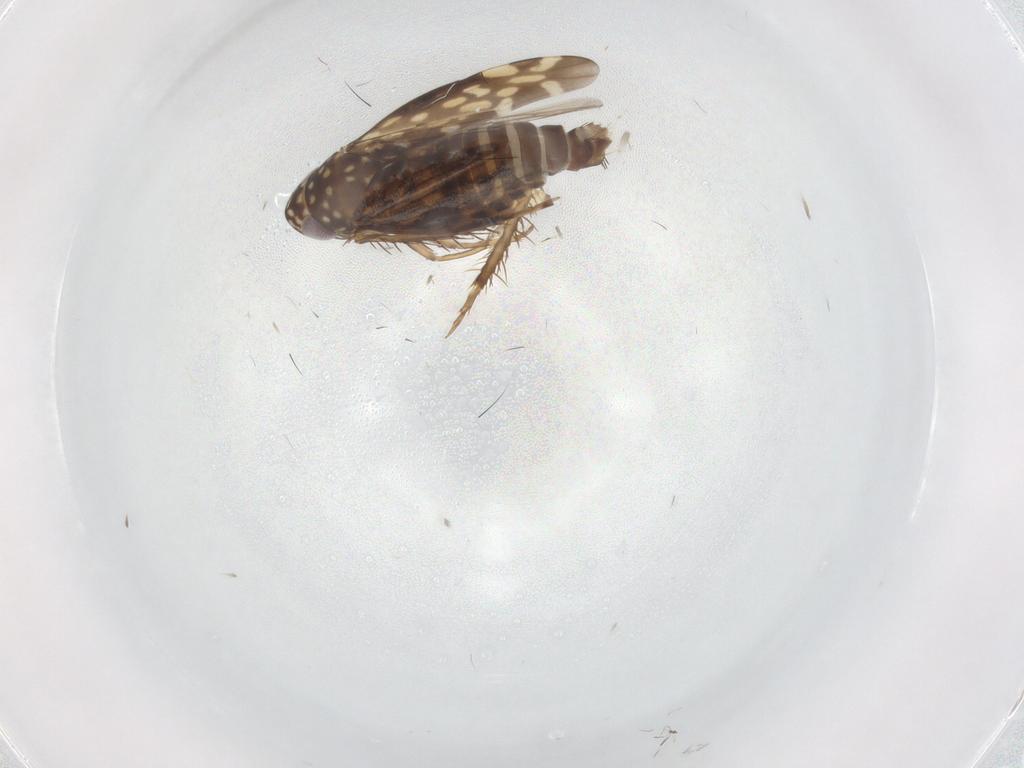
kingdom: Animalia
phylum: Arthropoda
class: Insecta
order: Hemiptera
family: Cicadellidae
